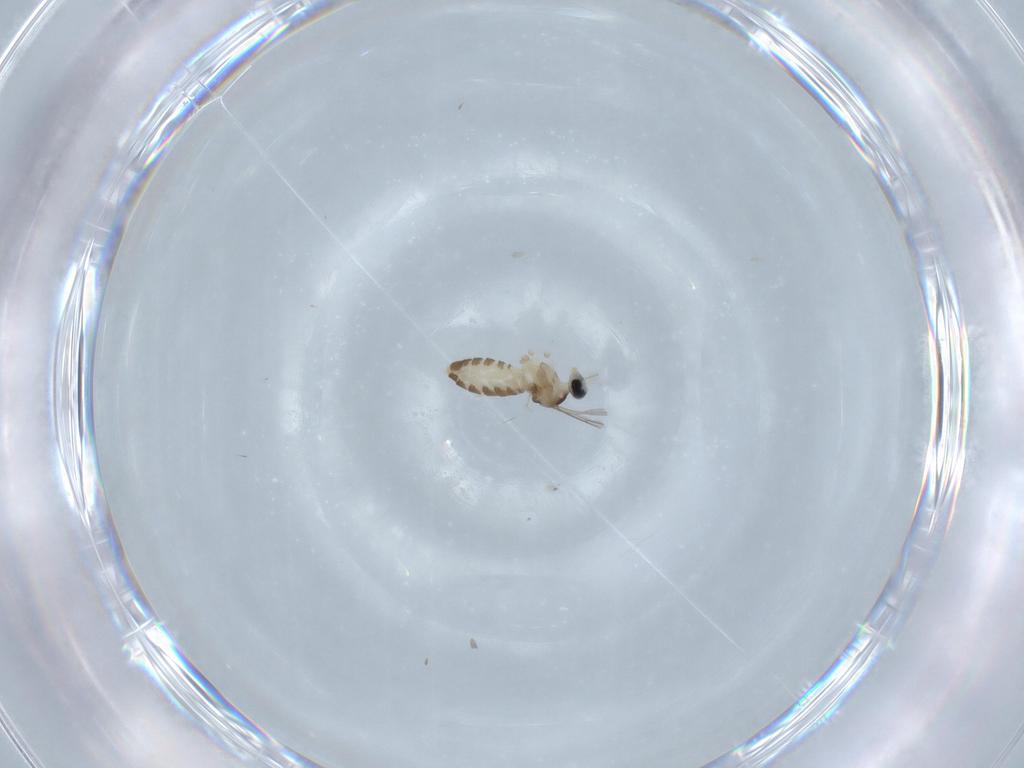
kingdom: Animalia
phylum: Arthropoda
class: Insecta
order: Diptera
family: Cecidomyiidae
